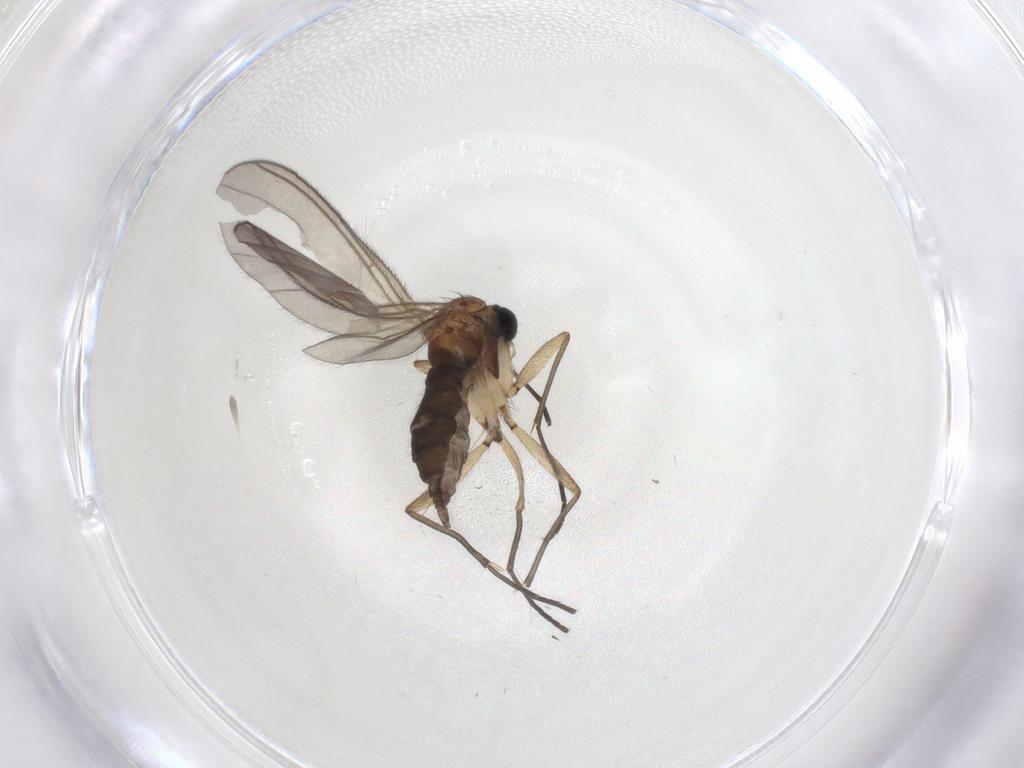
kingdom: Animalia
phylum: Arthropoda
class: Insecta
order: Diptera
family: Sciaridae
